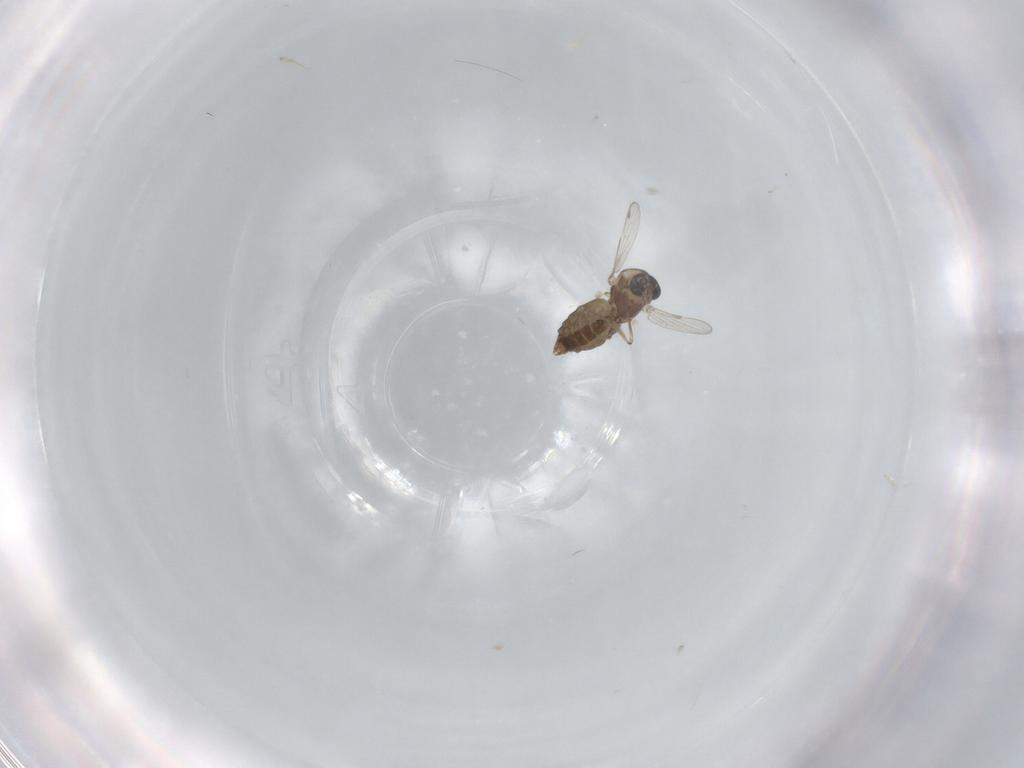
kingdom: Animalia
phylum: Arthropoda
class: Insecta
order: Diptera
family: Ceratopogonidae
